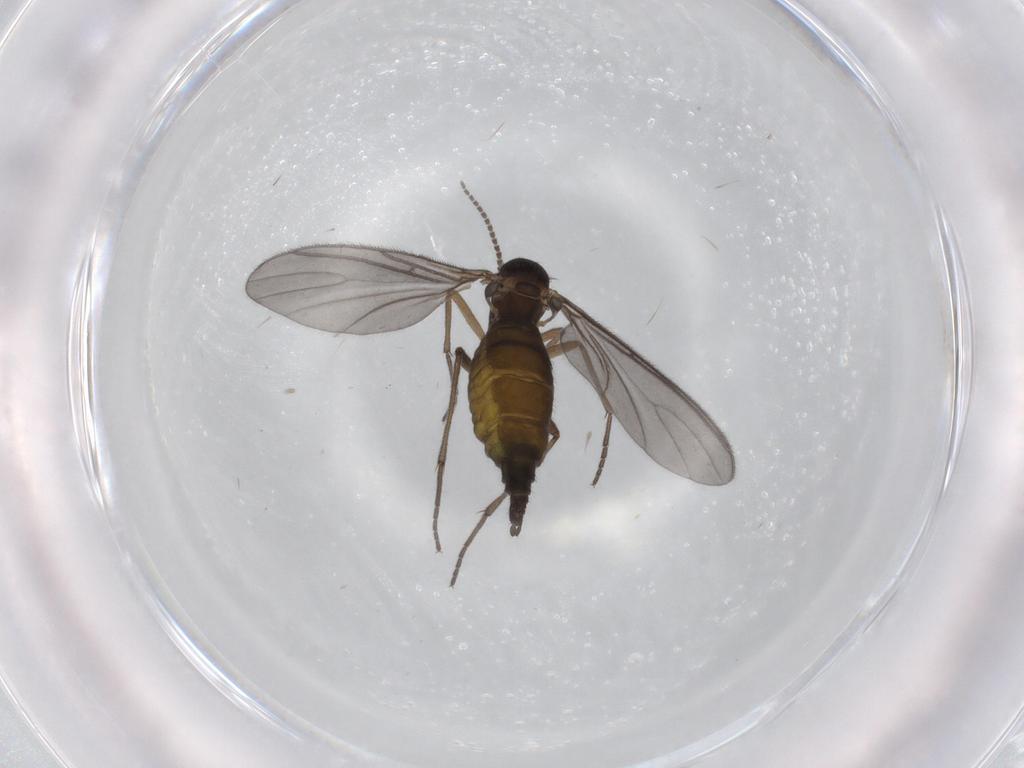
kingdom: Animalia
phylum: Arthropoda
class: Insecta
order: Diptera
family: Sciaridae
